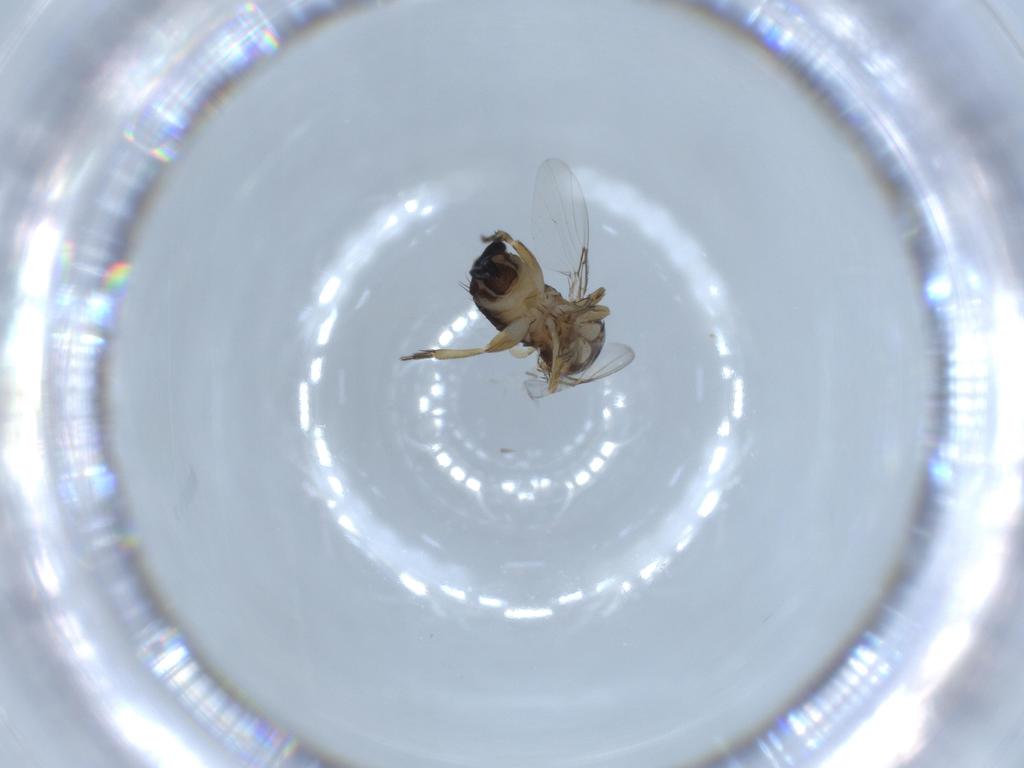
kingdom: Animalia
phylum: Arthropoda
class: Insecta
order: Diptera
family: Phoridae
